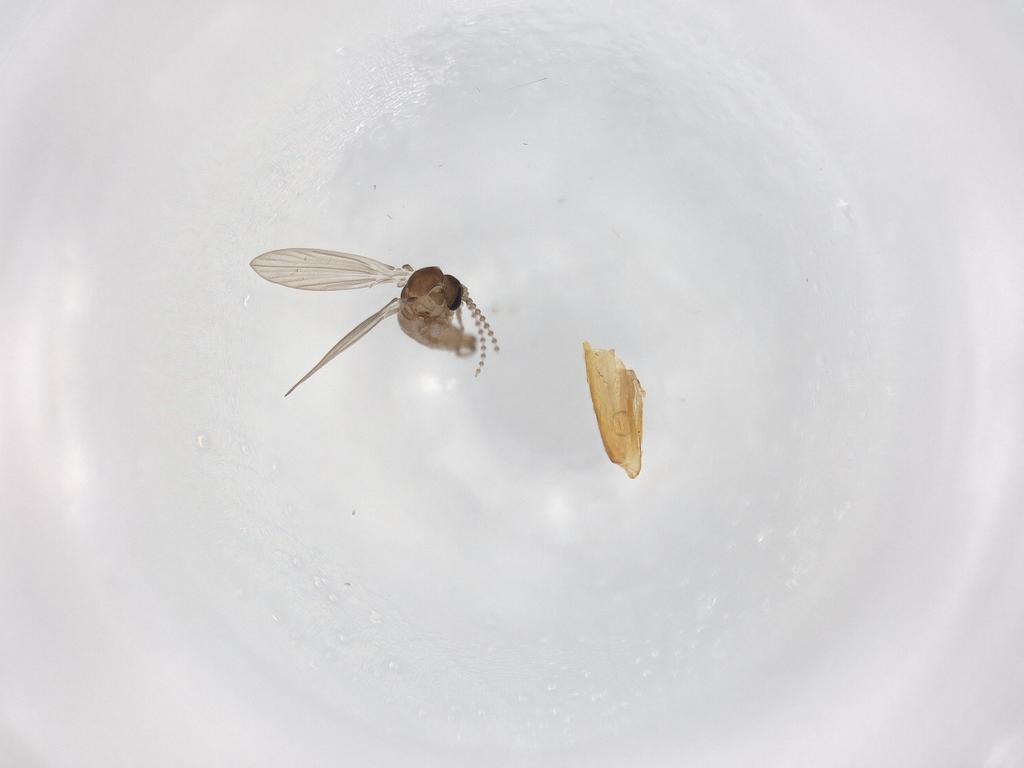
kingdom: Animalia
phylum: Arthropoda
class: Insecta
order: Diptera
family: Psychodidae
